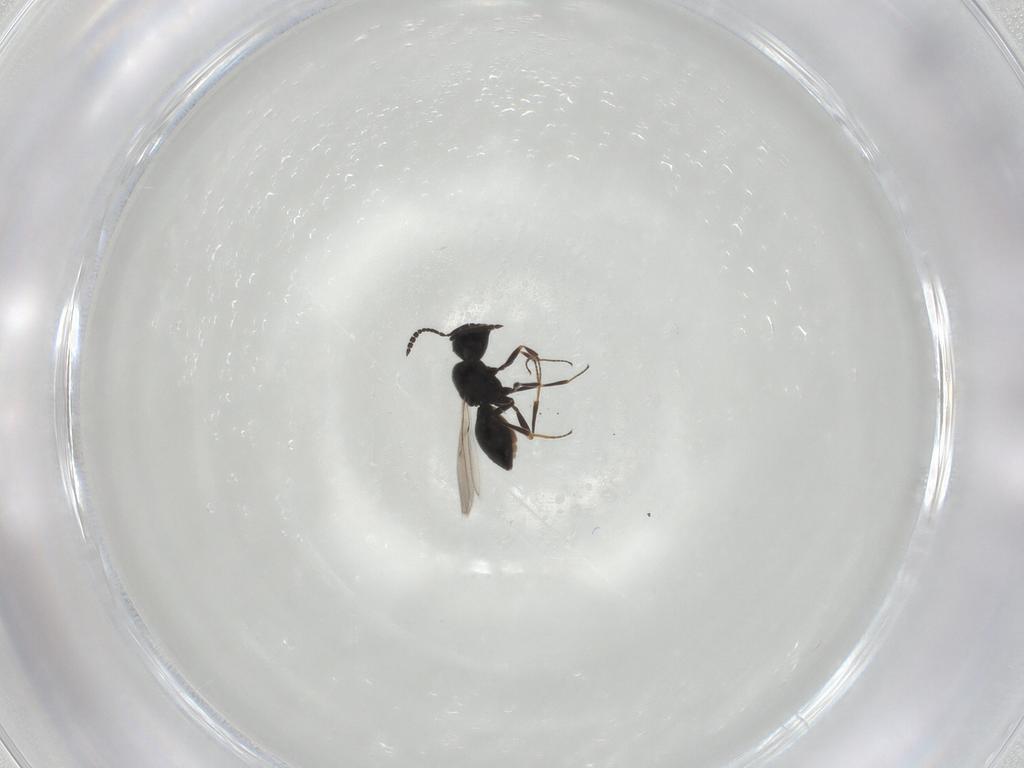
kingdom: Animalia
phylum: Arthropoda
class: Insecta
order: Hymenoptera
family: Scelionidae
